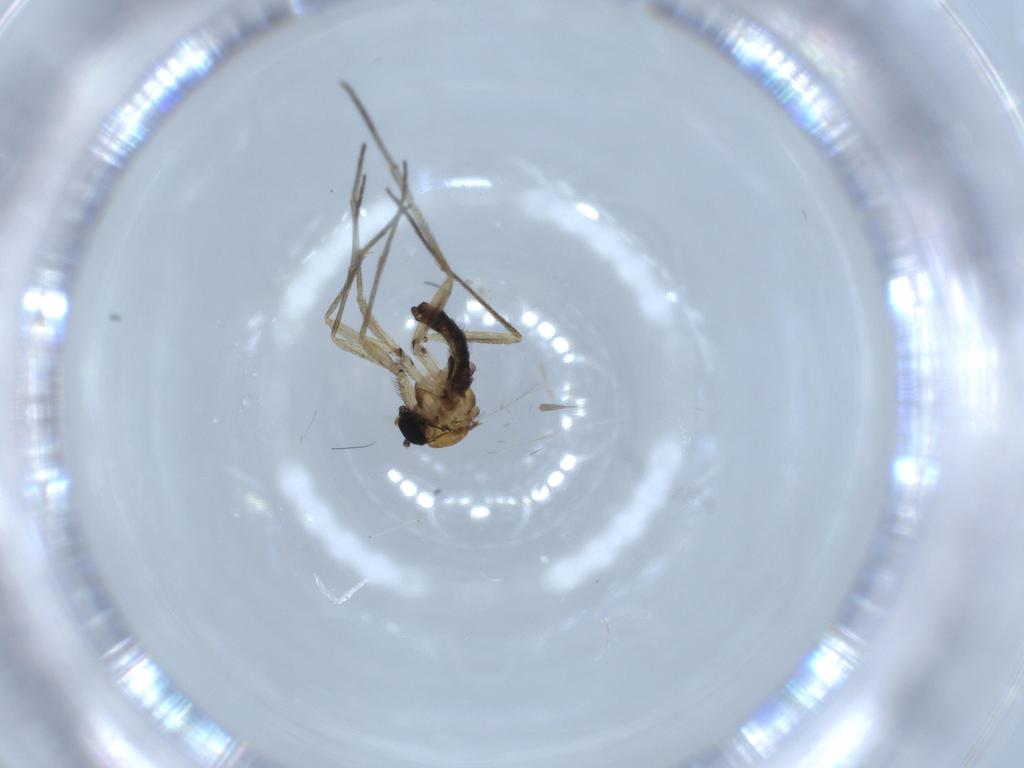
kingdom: Animalia
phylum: Arthropoda
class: Insecta
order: Diptera
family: Sciaridae
